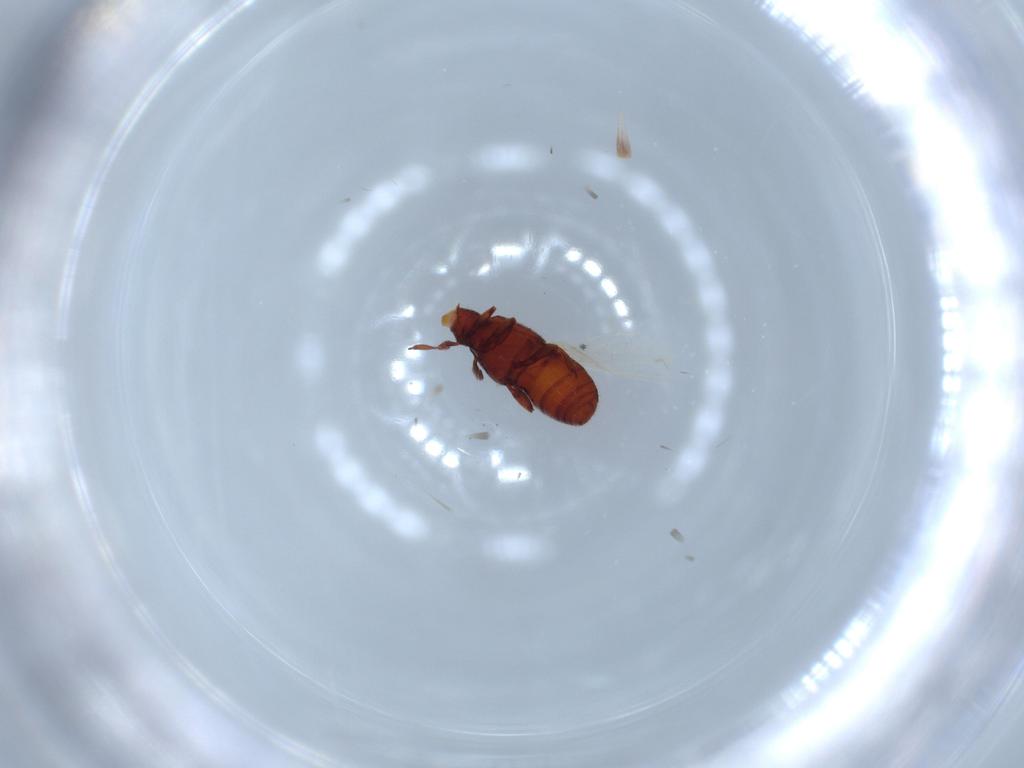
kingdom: Animalia
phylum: Arthropoda
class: Insecta
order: Coleoptera
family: Staphylinidae
